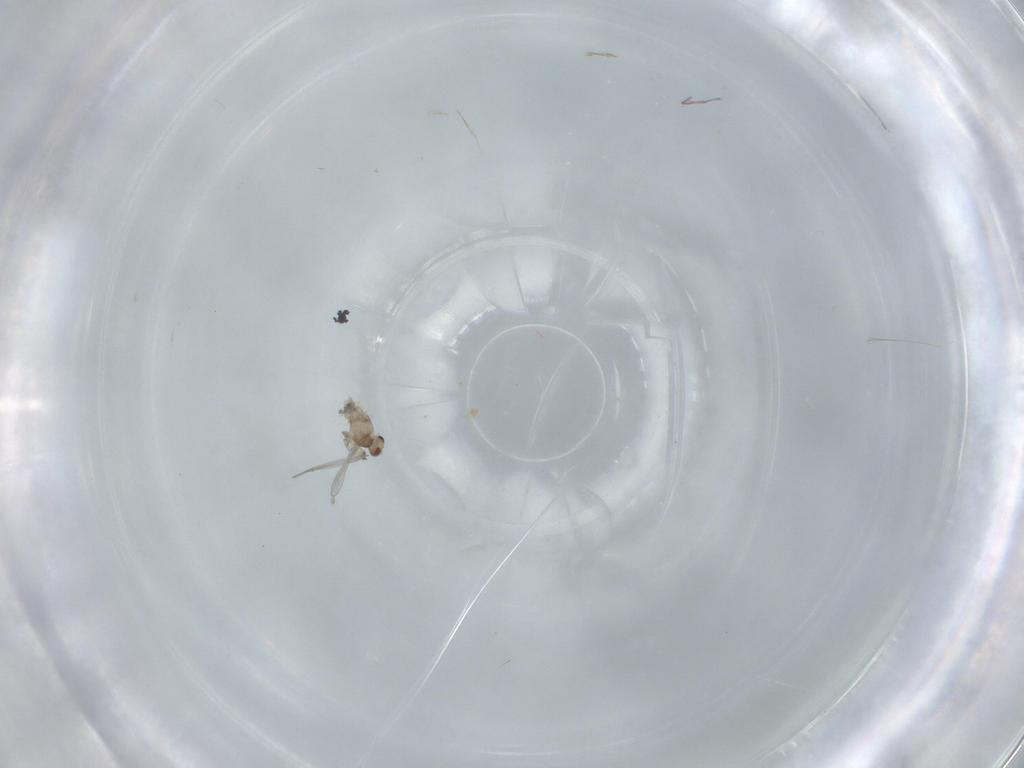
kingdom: Animalia
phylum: Arthropoda
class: Insecta
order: Diptera
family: Cecidomyiidae
